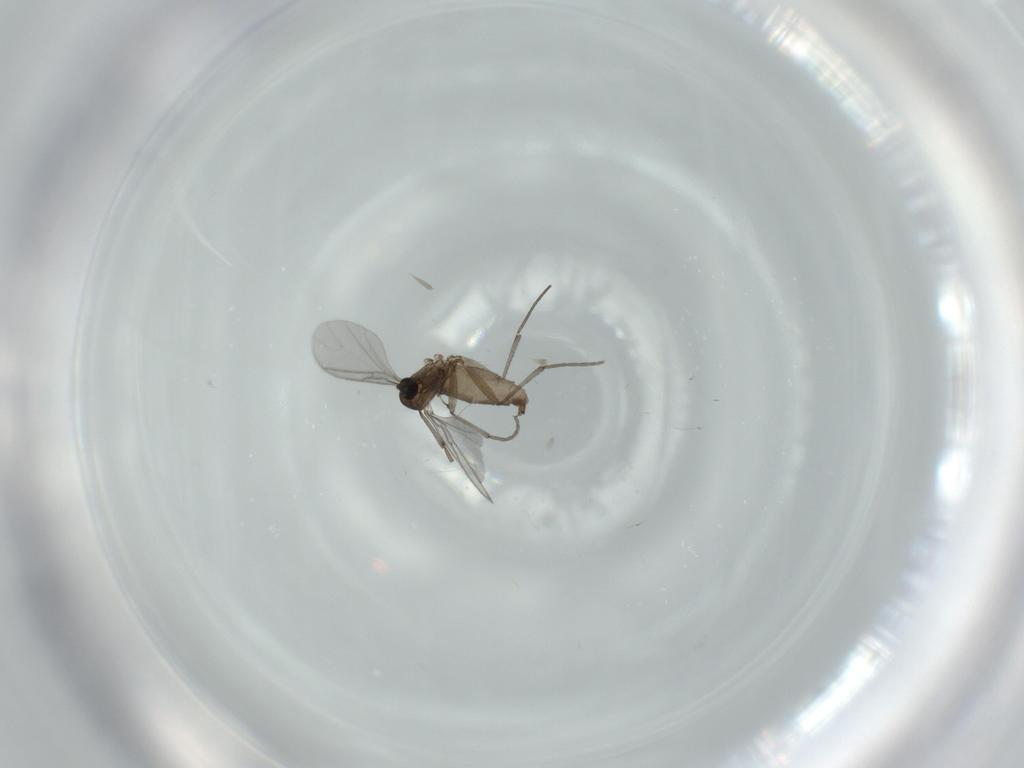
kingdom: Animalia
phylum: Arthropoda
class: Insecta
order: Diptera
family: Sciaridae
